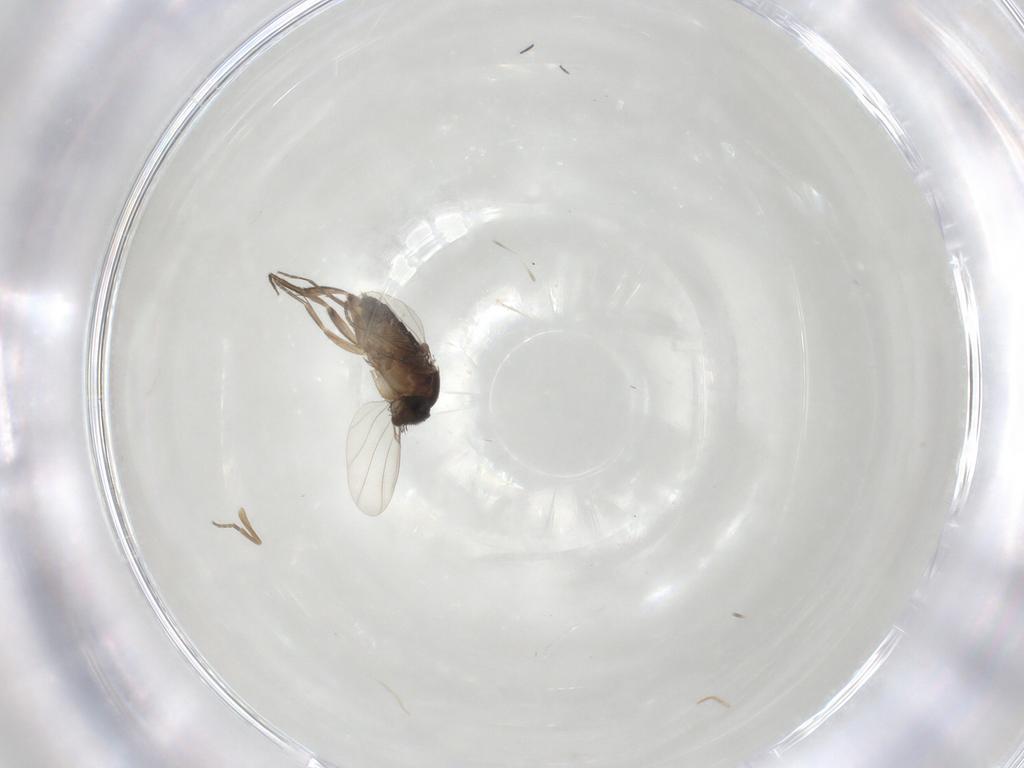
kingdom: Animalia
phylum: Arthropoda
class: Insecta
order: Diptera
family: Phoridae
